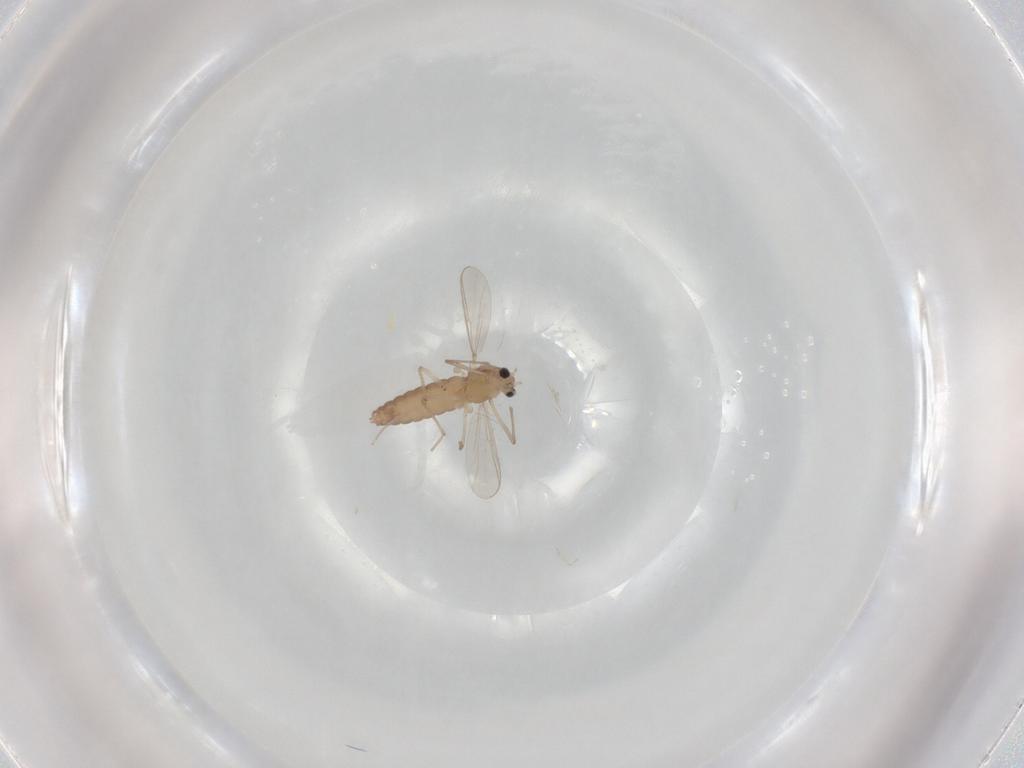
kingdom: Animalia
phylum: Arthropoda
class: Insecta
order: Diptera
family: Chironomidae
